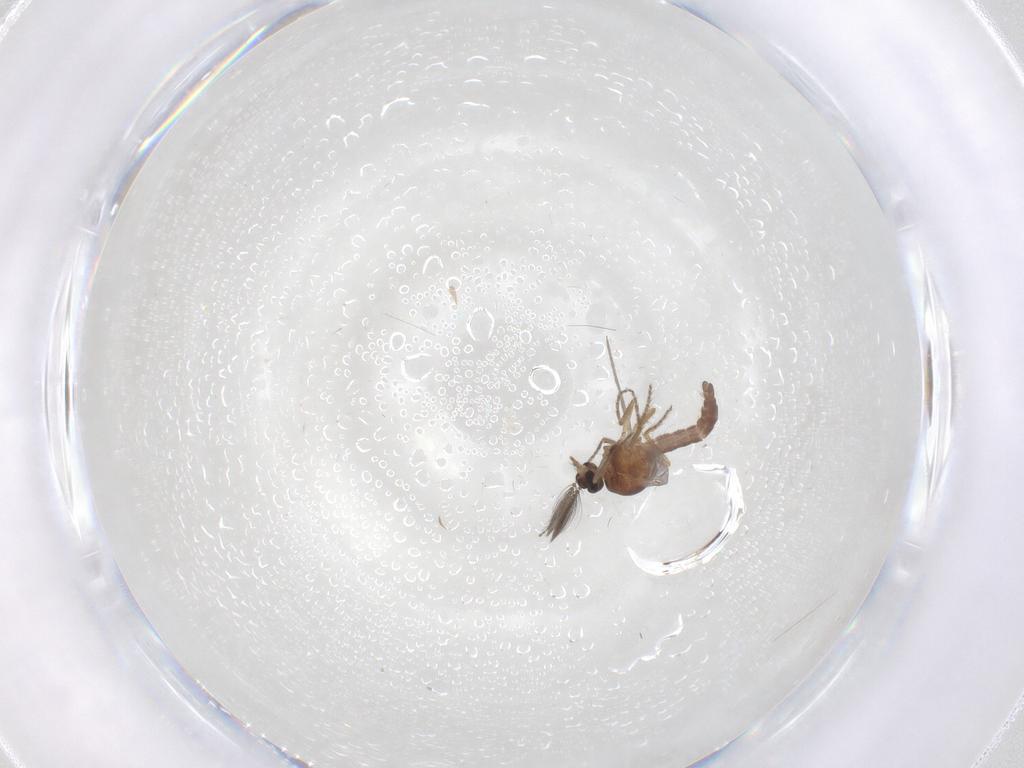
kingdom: Animalia
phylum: Arthropoda
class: Insecta
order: Diptera
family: Ceratopogonidae
